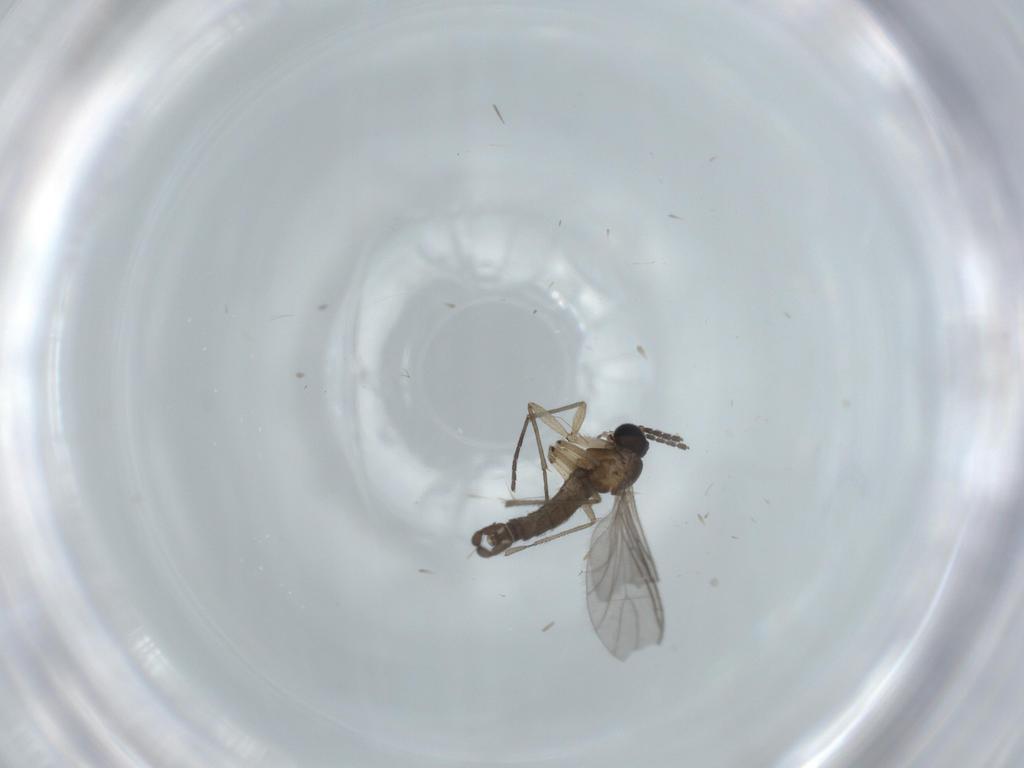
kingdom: Animalia
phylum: Arthropoda
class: Insecta
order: Diptera
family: Sciaridae
